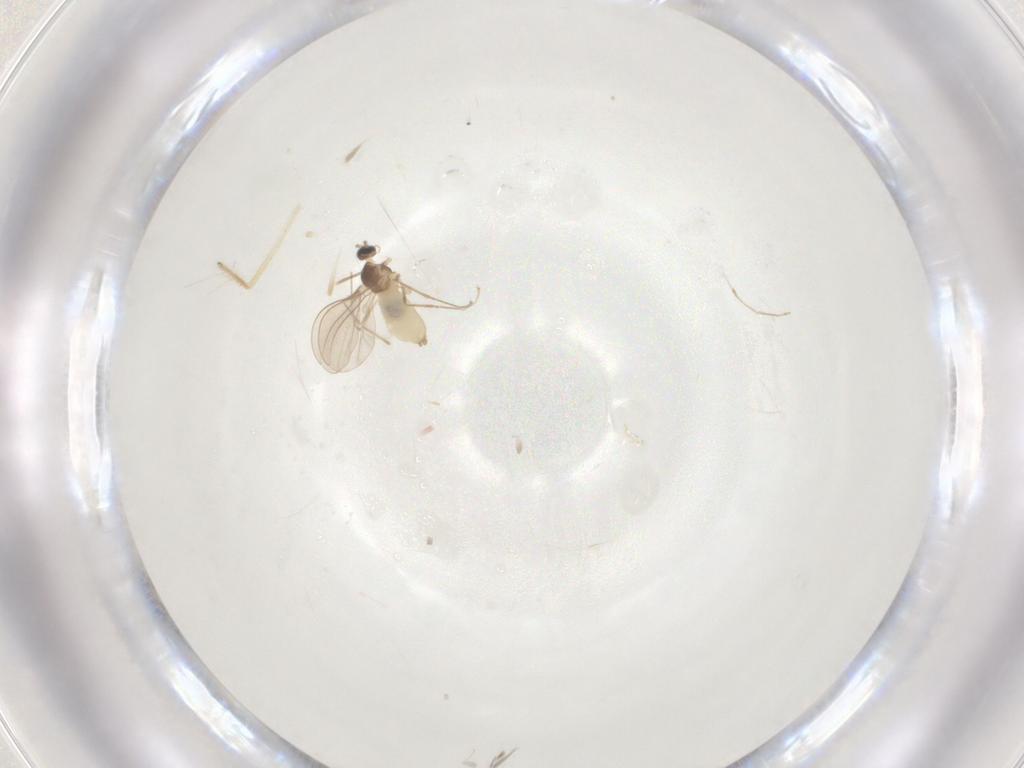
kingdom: Animalia
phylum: Arthropoda
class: Insecta
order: Diptera
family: Cecidomyiidae
